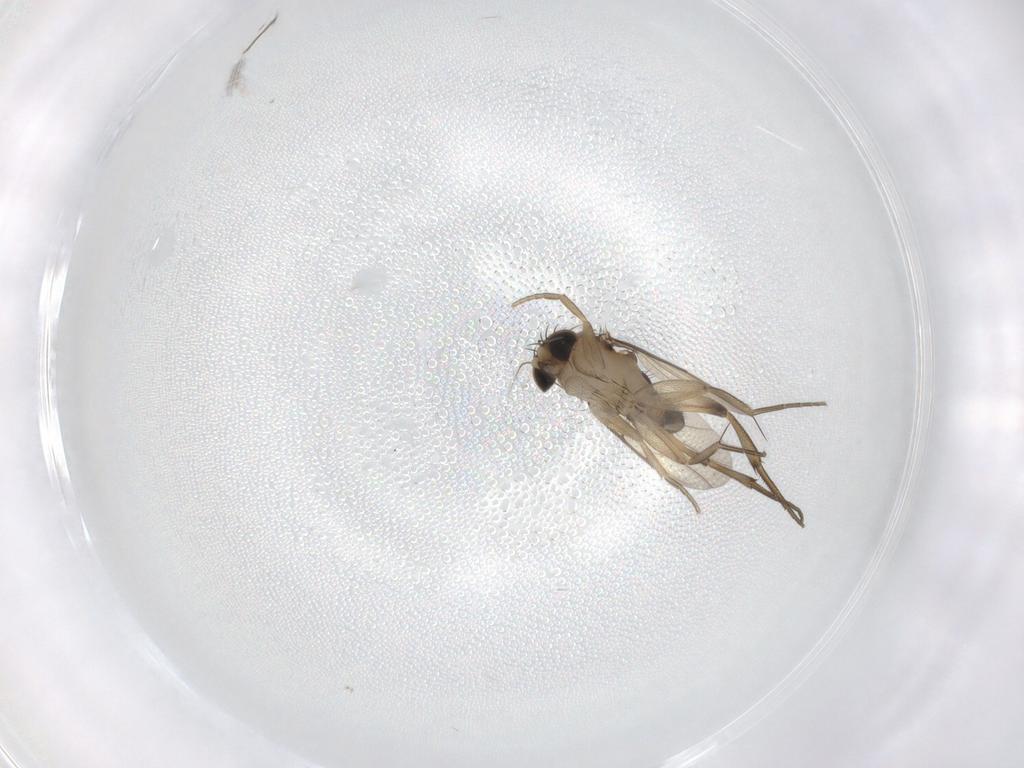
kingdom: Animalia
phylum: Arthropoda
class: Insecta
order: Diptera
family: Phoridae
